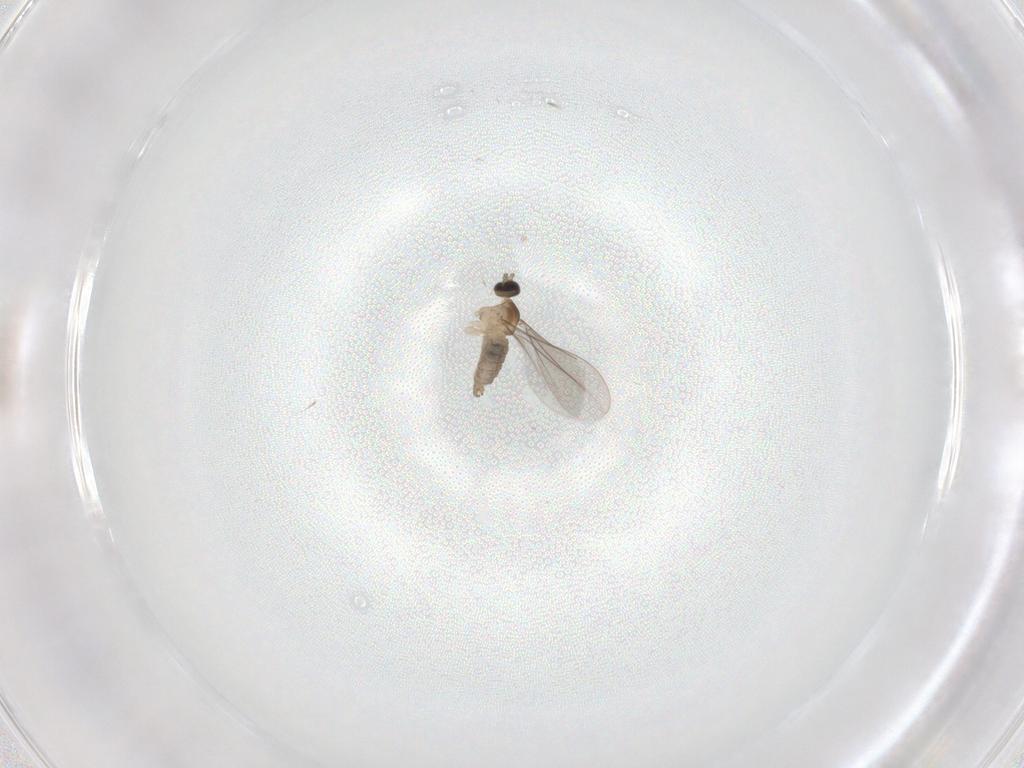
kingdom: Animalia
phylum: Arthropoda
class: Insecta
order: Diptera
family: Cecidomyiidae
